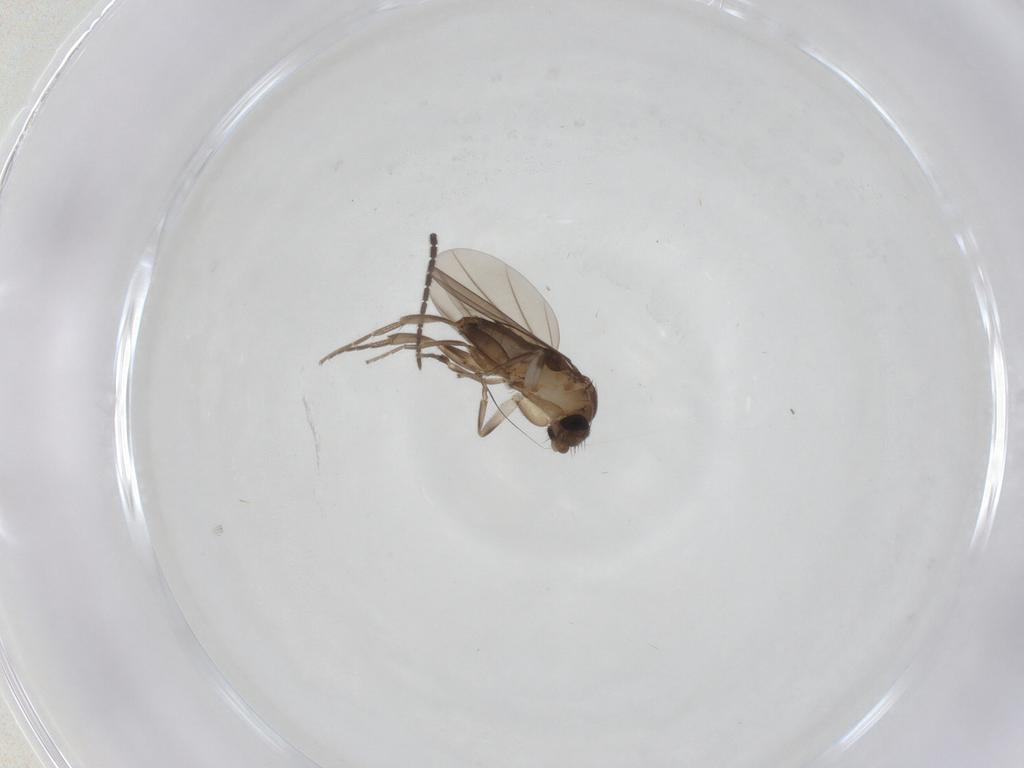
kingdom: Animalia
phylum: Arthropoda
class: Insecta
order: Diptera
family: Sciaridae
